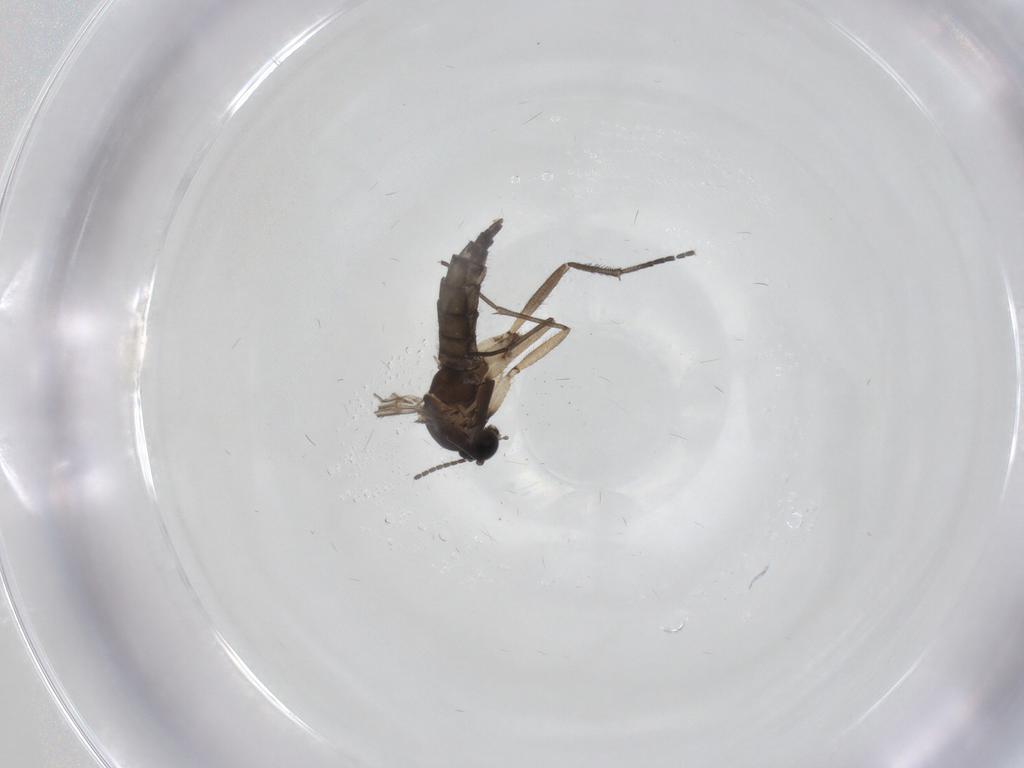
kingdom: Animalia
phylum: Arthropoda
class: Insecta
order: Diptera
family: Sciaridae
